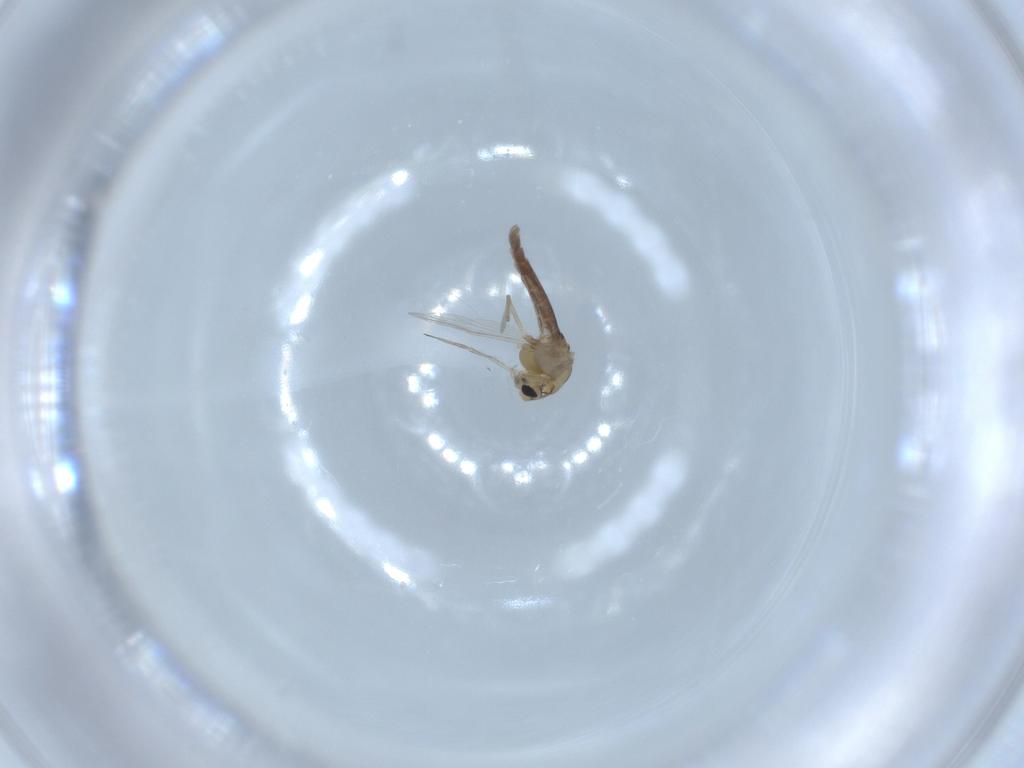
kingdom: Animalia
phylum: Arthropoda
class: Insecta
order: Diptera
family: Chironomidae
